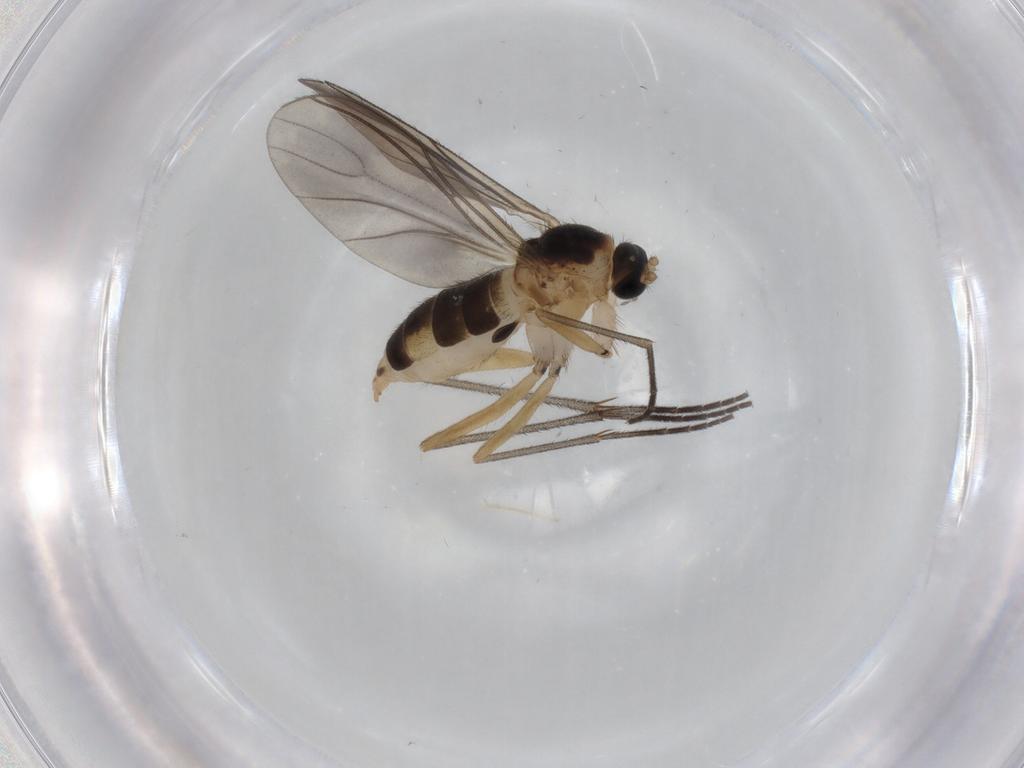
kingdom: Animalia
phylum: Arthropoda
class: Insecta
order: Diptera
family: Sciaridae
